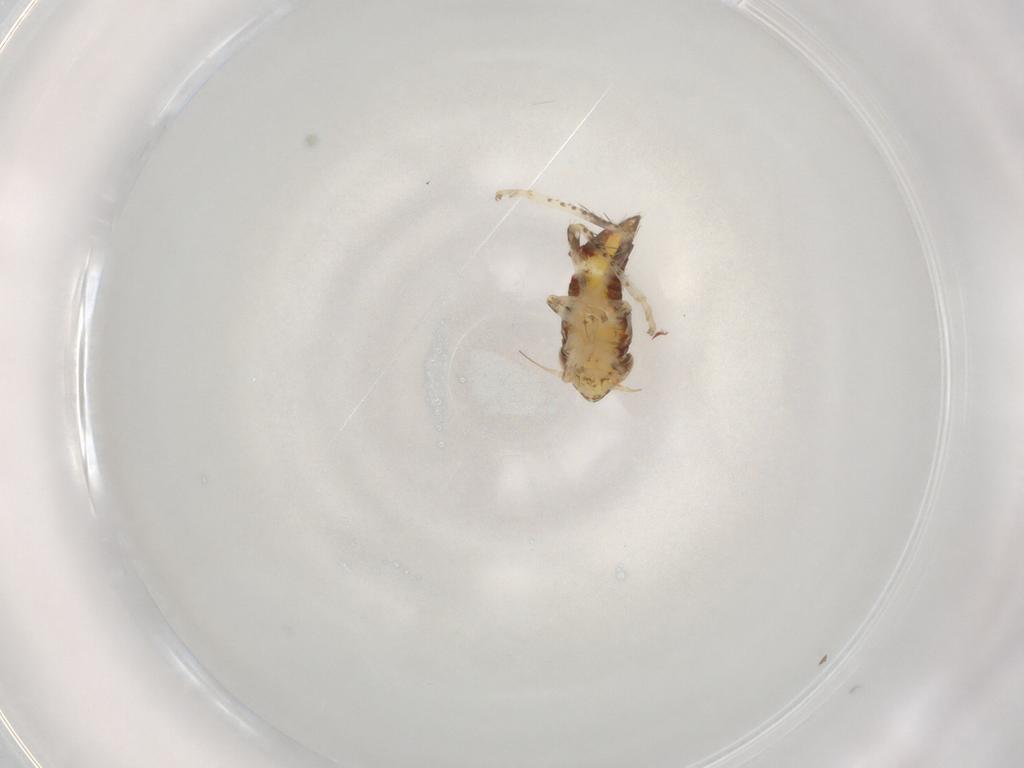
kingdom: Animalia
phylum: Arthropoda
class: Insecta
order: Hemiptera
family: Cicadellidae
